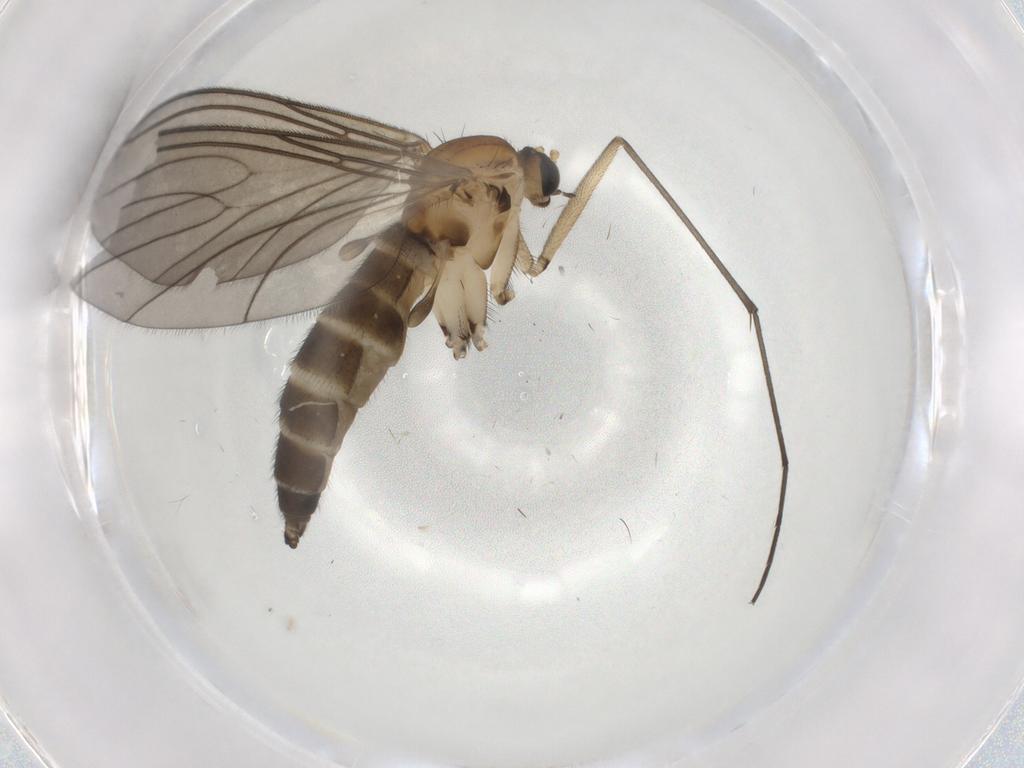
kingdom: Animalia
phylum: Arthropoda
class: Insecta
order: Diptera
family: Sciaridae
